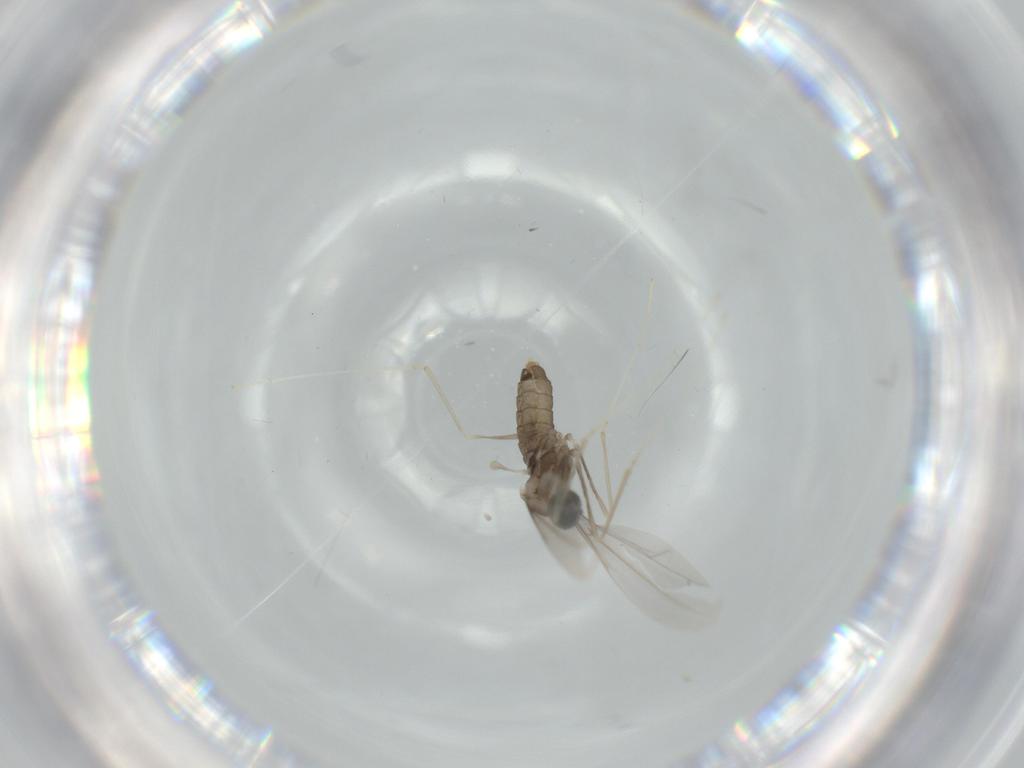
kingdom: Animalia
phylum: Arthropoda
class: Insecta
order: Diptera
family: Cecidomyiidae
